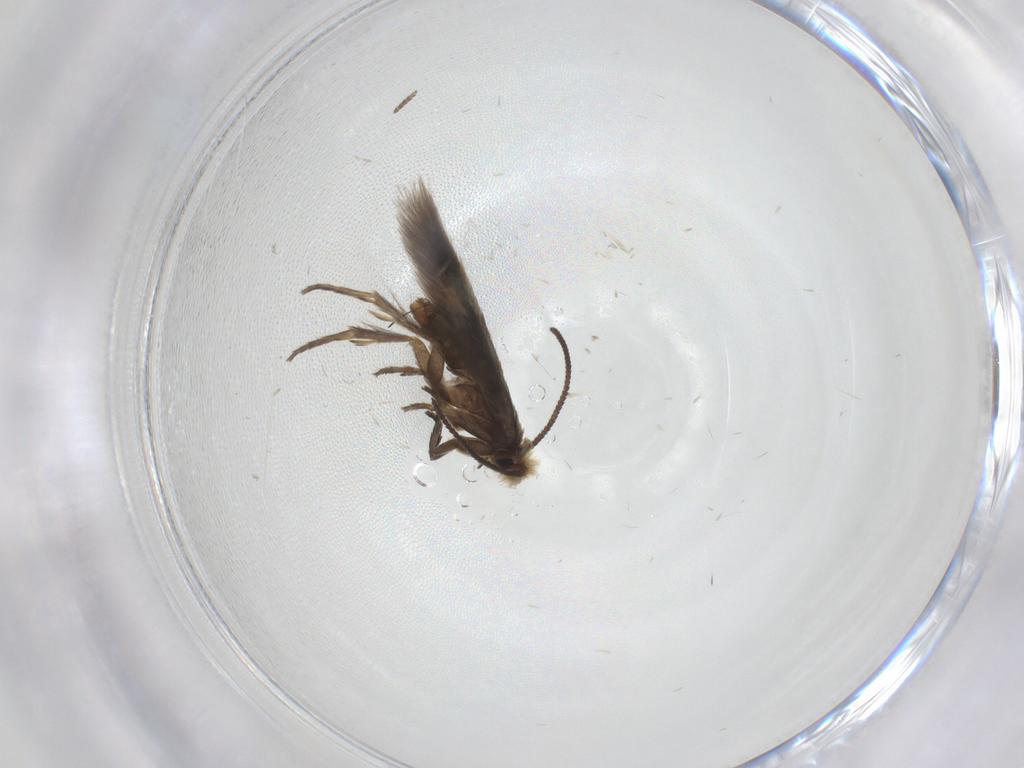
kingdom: Animalia
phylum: Arthropoda
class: Insecta
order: Lepidoptera
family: Nepticulidae
